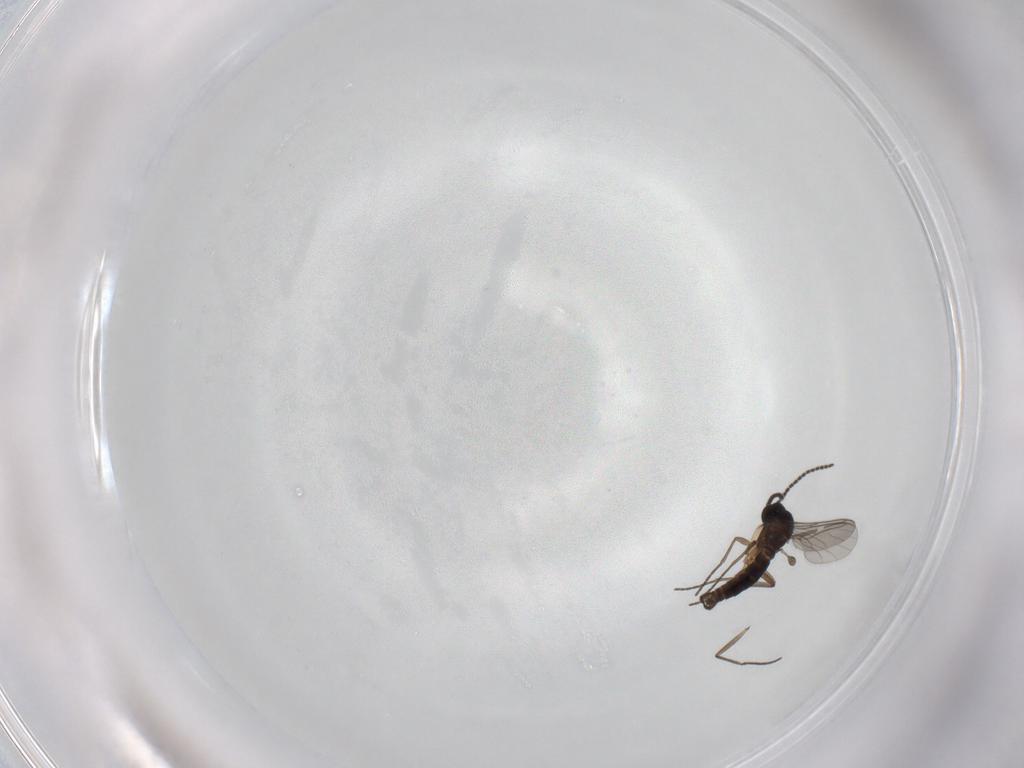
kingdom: Animalia
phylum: Arthropoda
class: Insecta
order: Diptera
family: Sciaridae
